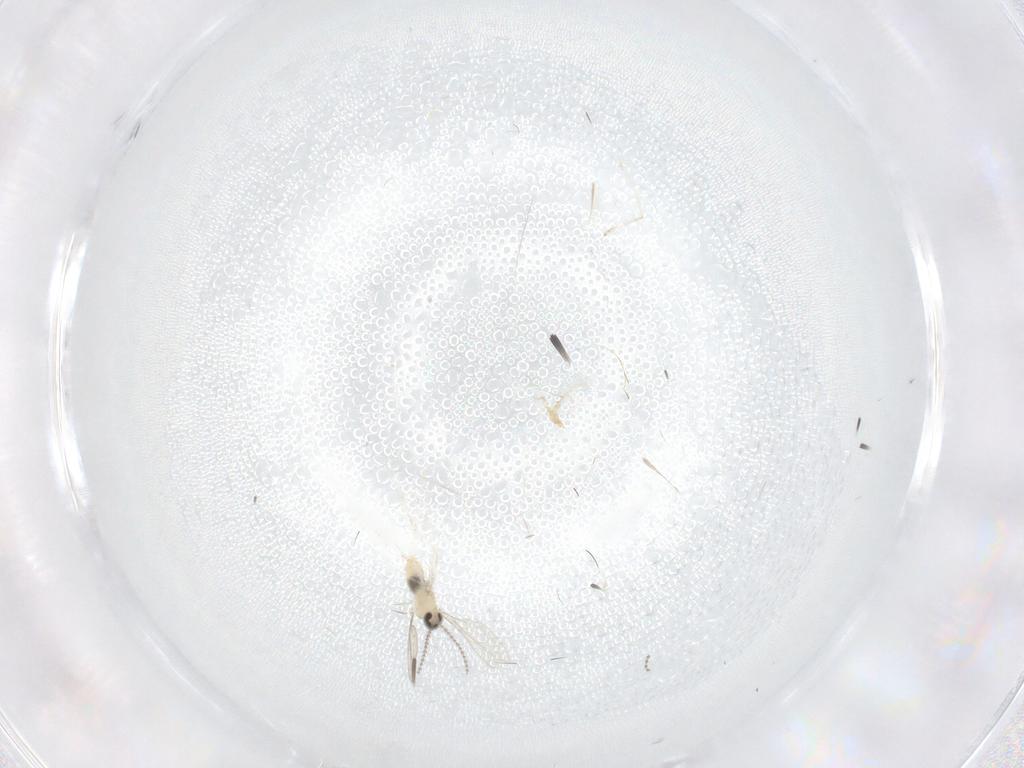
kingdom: Animalia
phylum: Arthropoda
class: Insecta
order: Diptera
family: Cecidomyiidae
